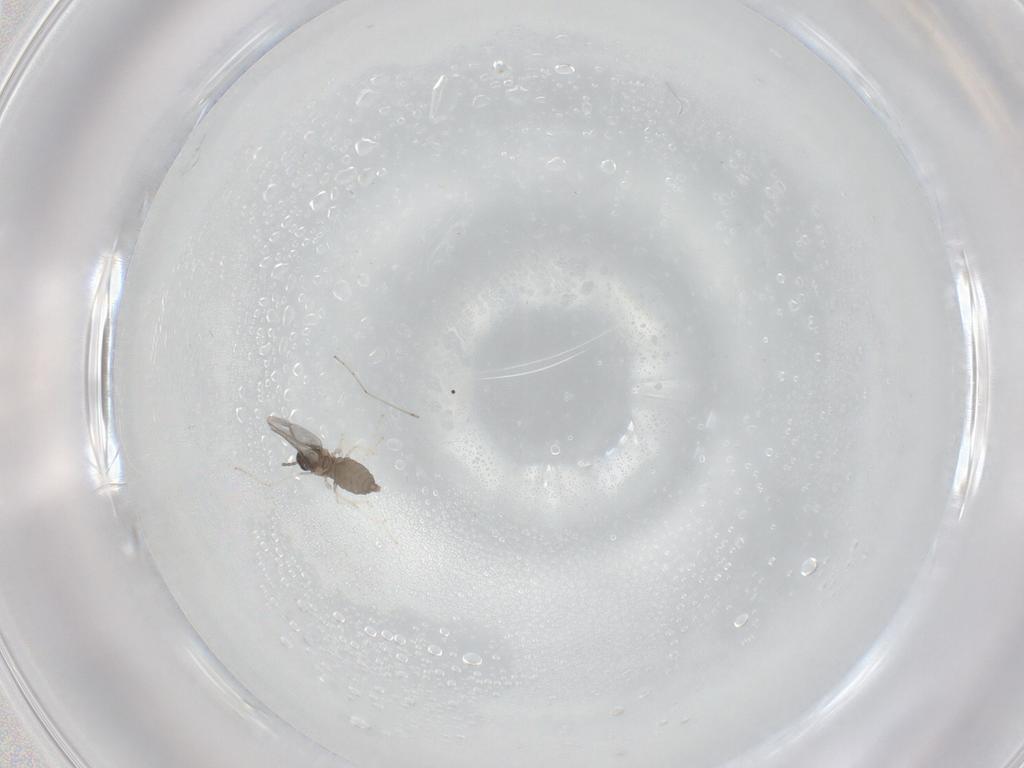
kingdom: Animalia
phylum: Arthropoda
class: Insecta
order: Diptera
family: Cecidomyiidae
